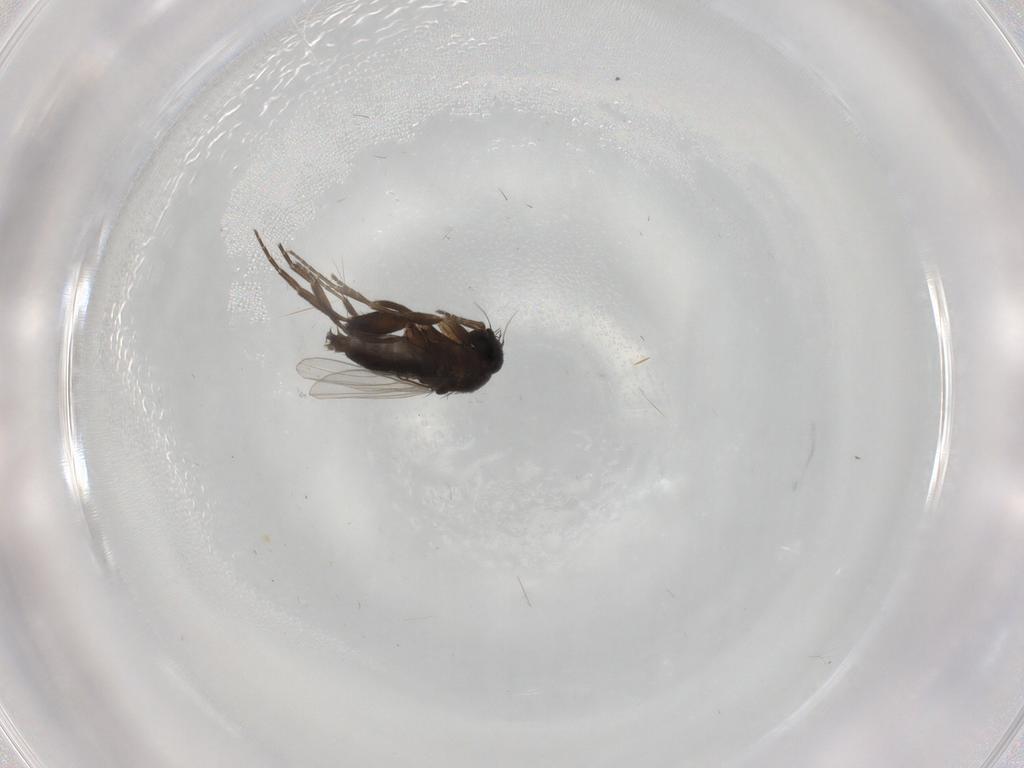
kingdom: Animalia
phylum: Arthropoda
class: Insecta
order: Diptera
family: Phoridae
